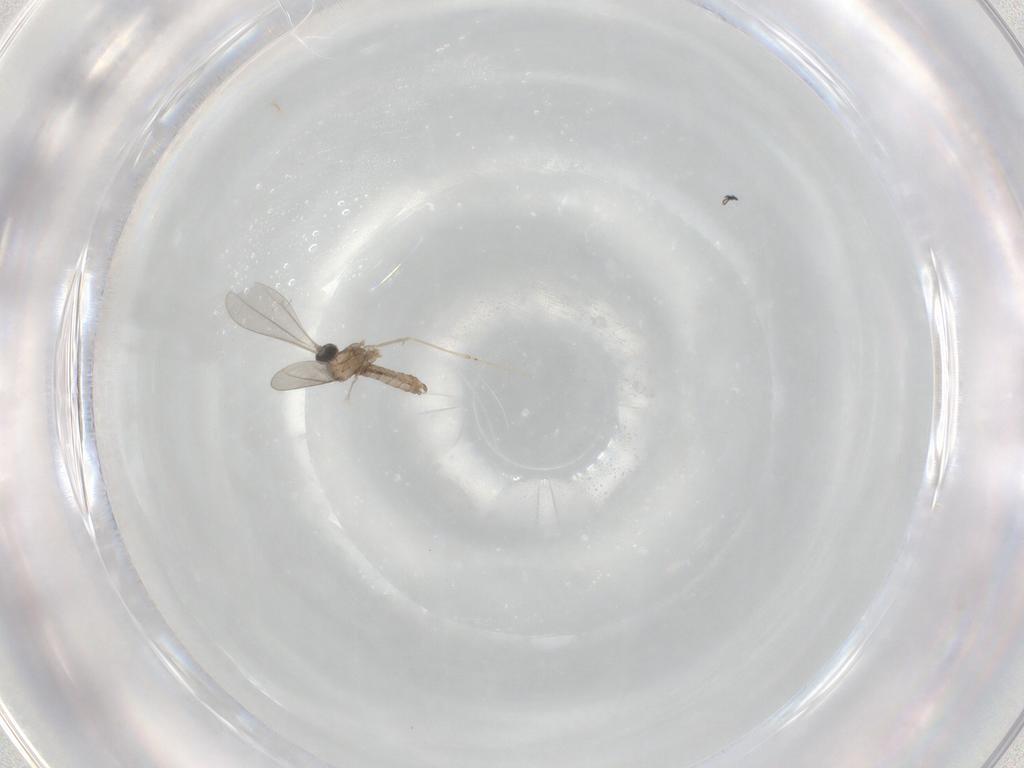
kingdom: Animalia
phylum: Arthropoda
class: Insecta
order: Diptera
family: Cecidomyiidae
